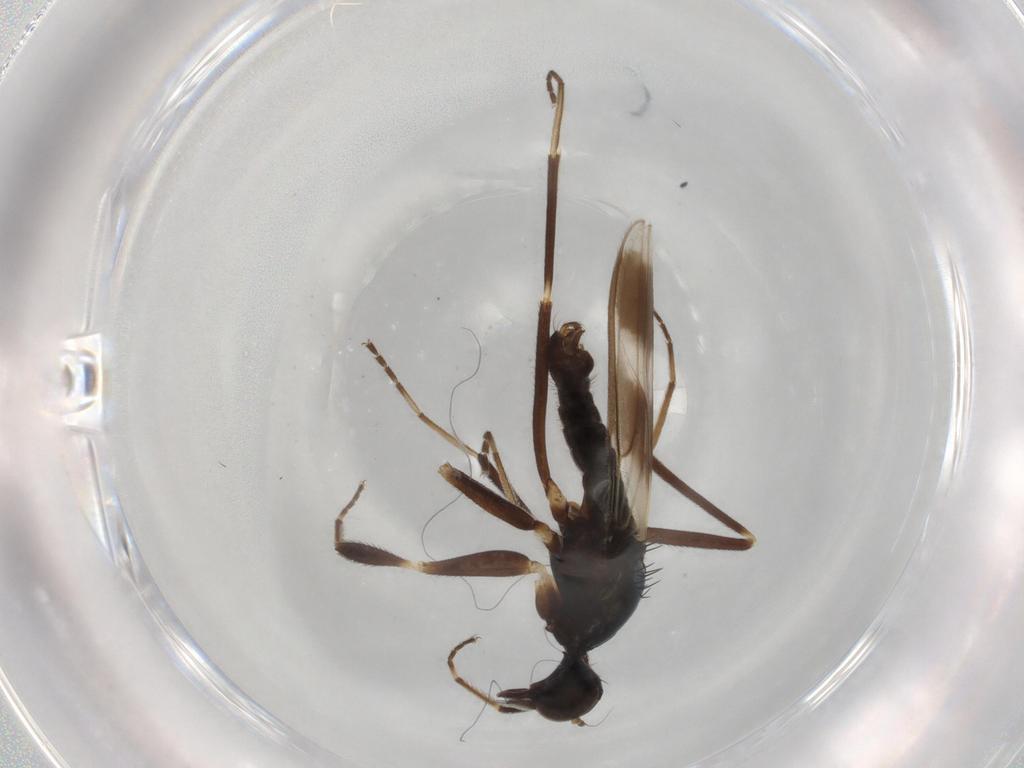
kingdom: Animalia
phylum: Arthropoda
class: Insecta
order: Diptera
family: Hybotidae
